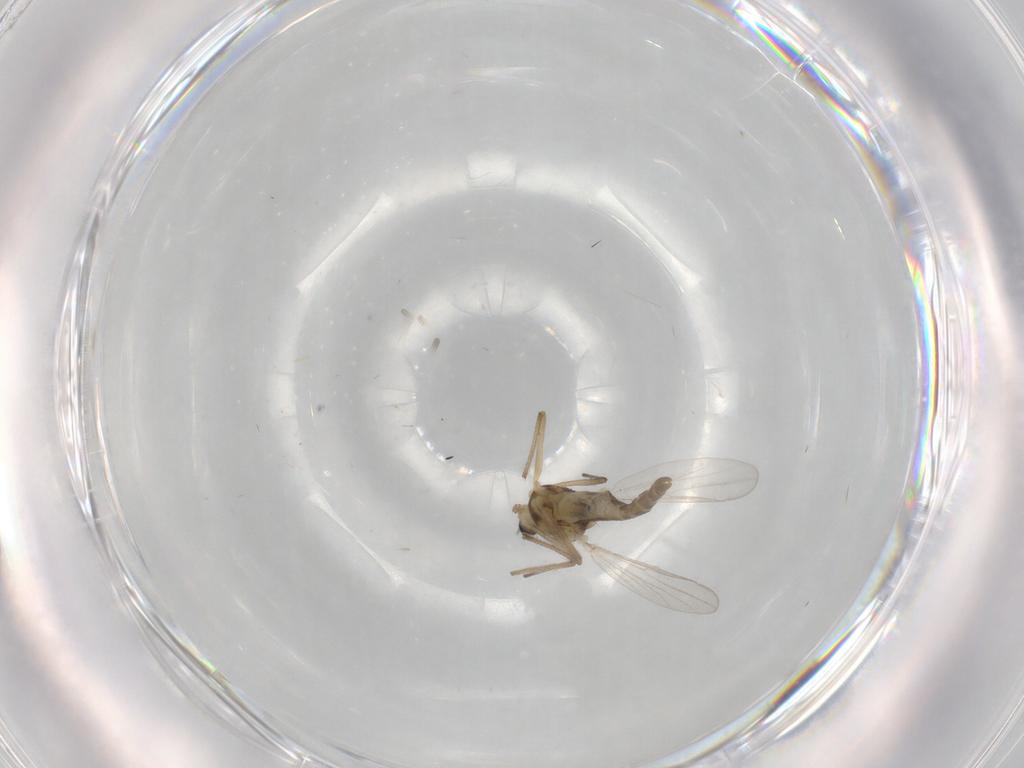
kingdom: Animalia
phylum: Arthropoda
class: Insecta
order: Diptera
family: Chironomidae
